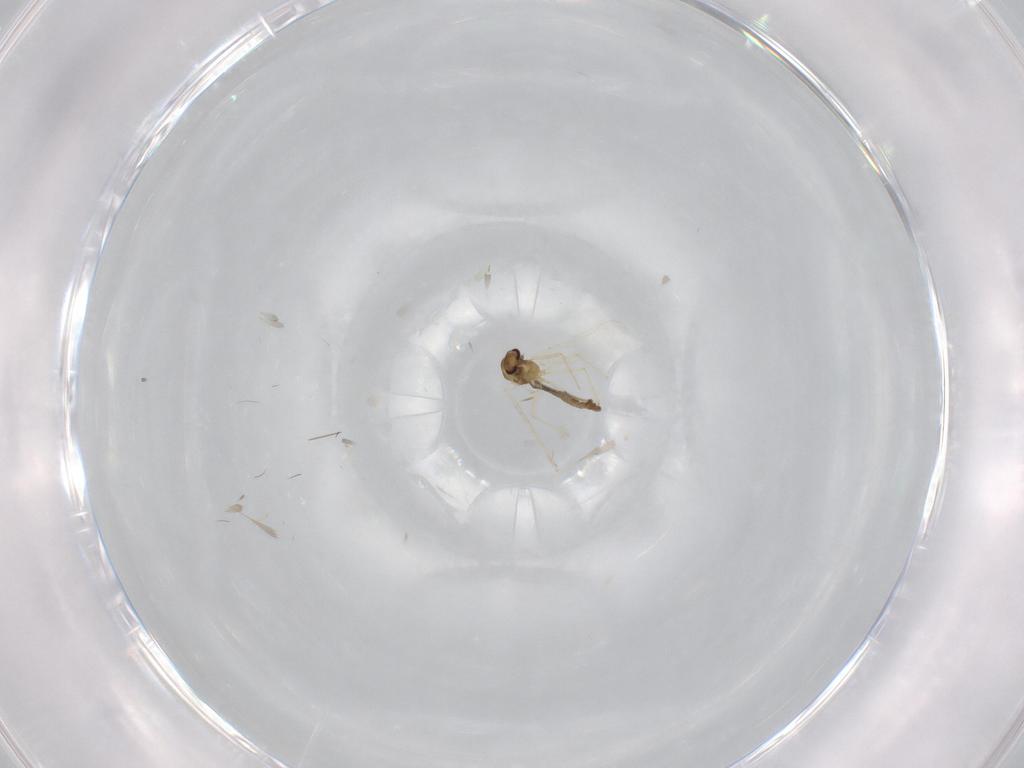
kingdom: Animalia
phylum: Arthropoda
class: Insecta
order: Diptera
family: Chironomidae
